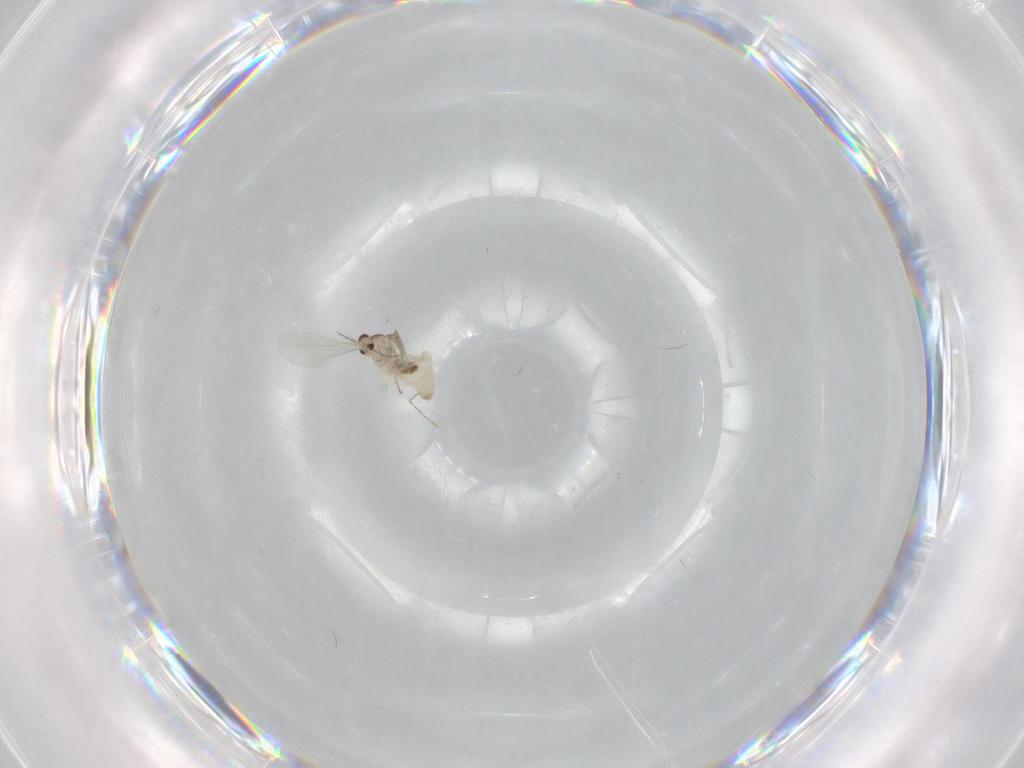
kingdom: Animalia
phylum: Arthropoda
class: Insecta
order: Diptera
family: Cecidomyiidae
